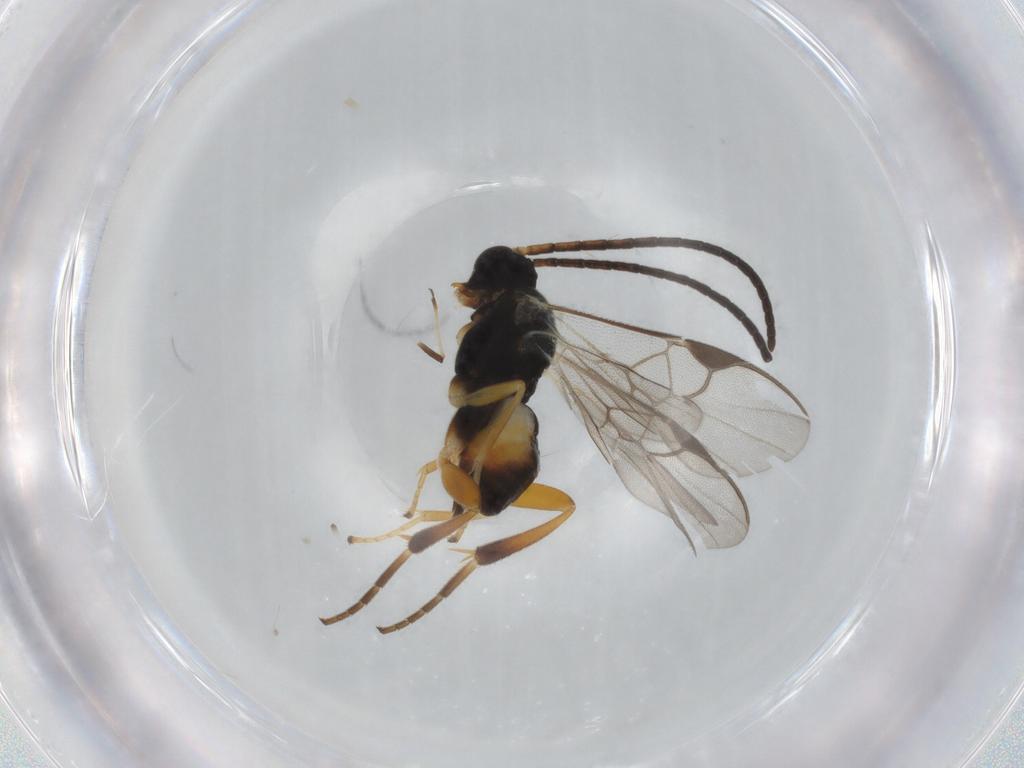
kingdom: Animalia
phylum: Arthropoda
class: Insecta
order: Hymenoptera
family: Braconidae
